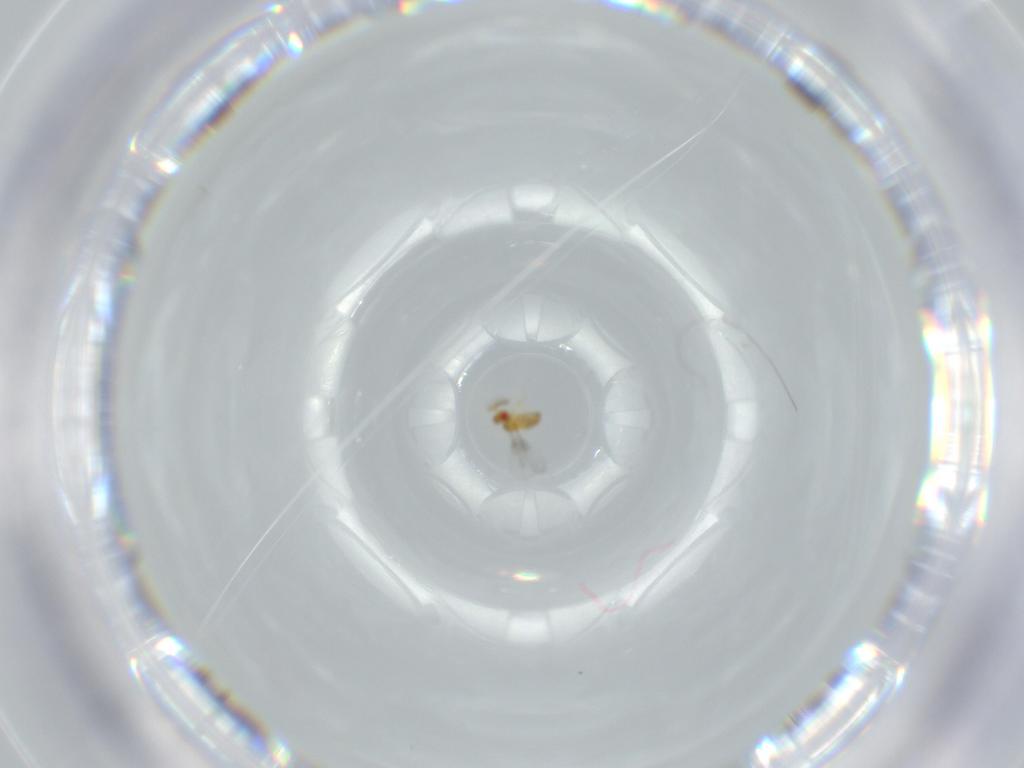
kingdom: Animalia
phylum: Arthropoda
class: Insecta
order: Hymenoptera
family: Trichogrammatidae
